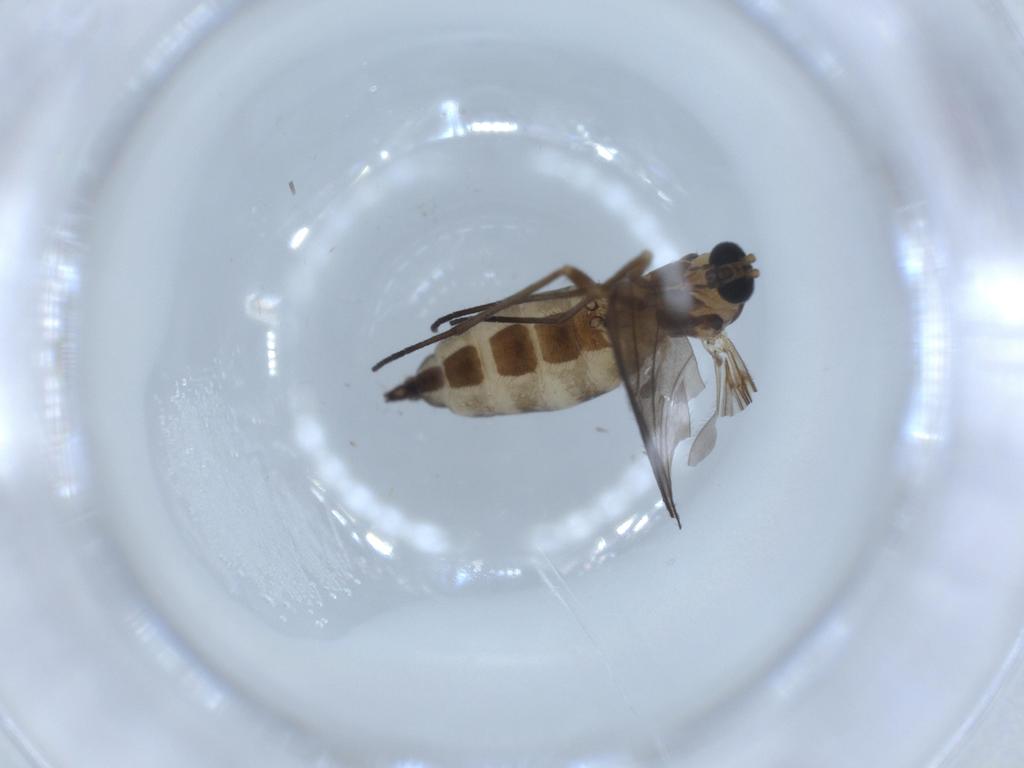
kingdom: Animalia
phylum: Arthropoda
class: Insecta
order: Diptera
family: Sciaridae
